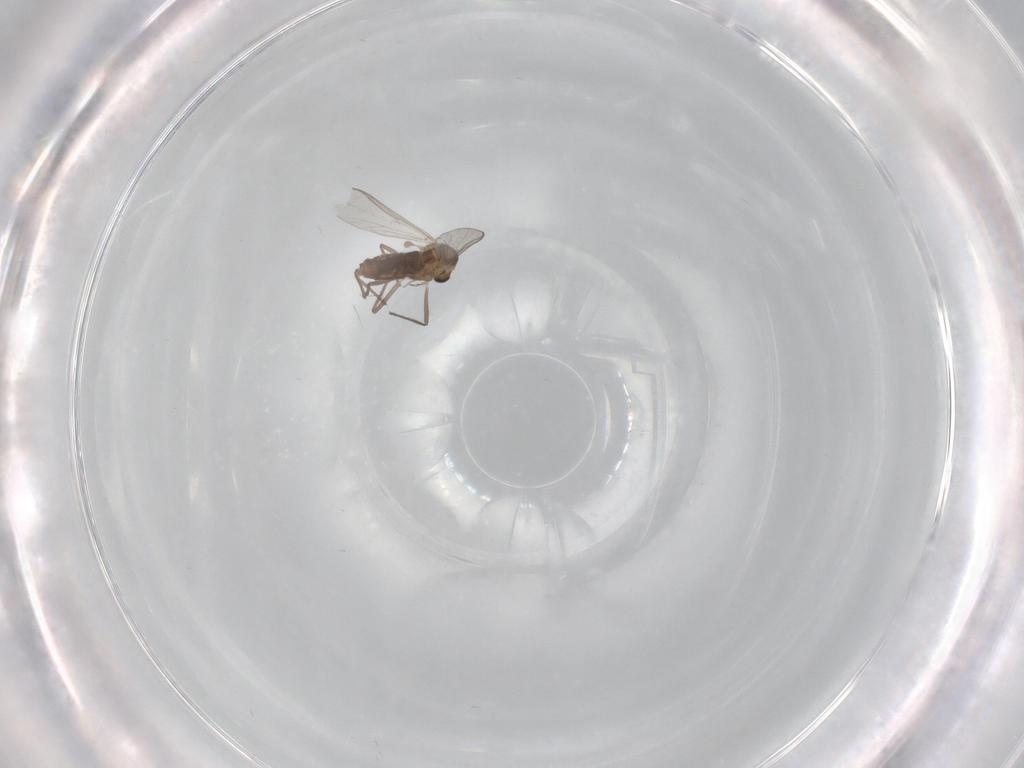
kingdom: Animalia
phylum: Arthropoda
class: Insecta
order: Diptera
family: Chironomidae
